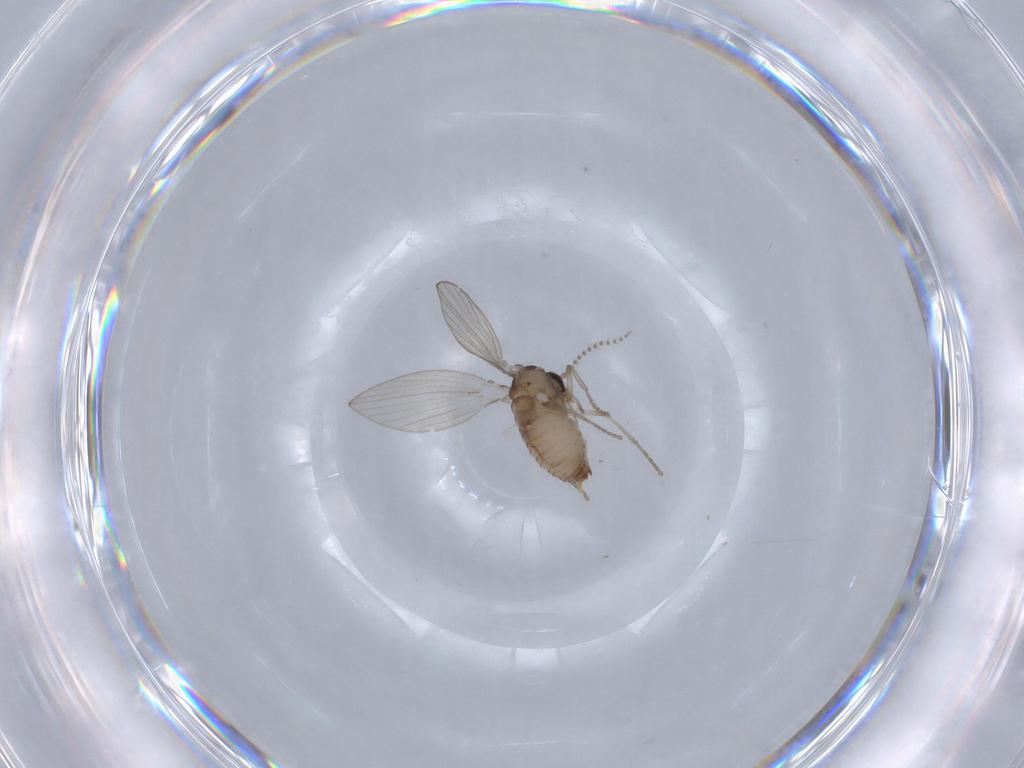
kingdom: Animalia
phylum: Arthropoda
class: Insecta
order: Diptera
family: Psychodidae
